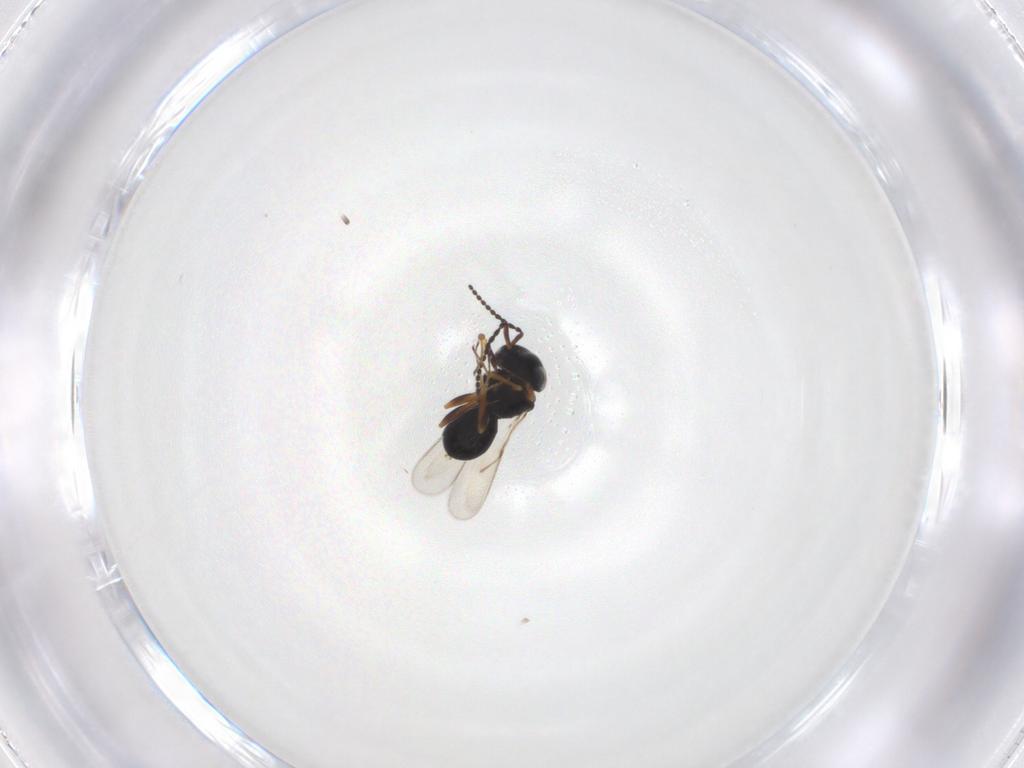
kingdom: Animalia
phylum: Arthropoda
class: Insecta
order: Hymenoptera
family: Scelionidae
